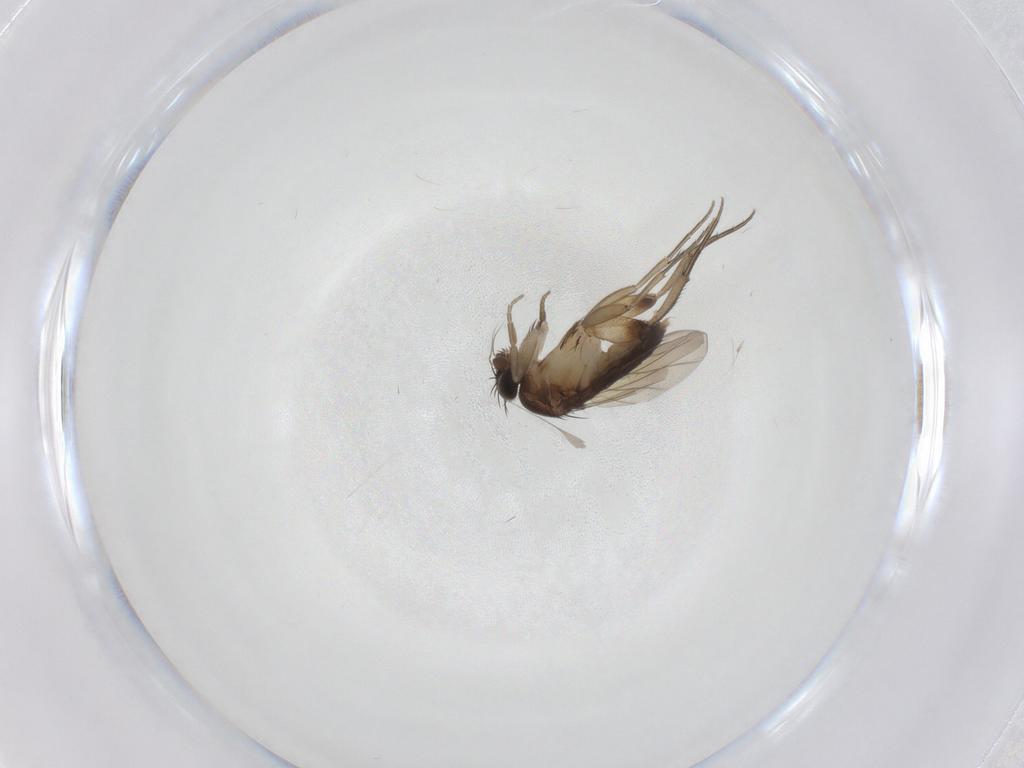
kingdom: Animalia
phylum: Arthropoda
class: Insecta
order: Diptera
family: Phoridae
